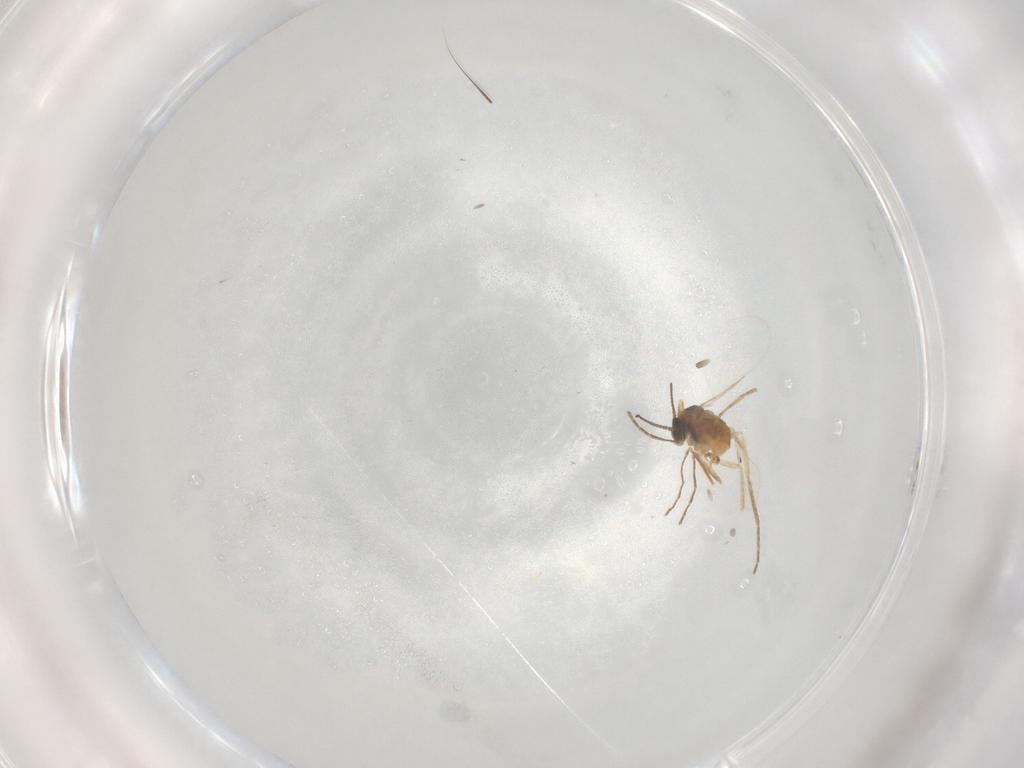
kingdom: Animalia
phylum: Arthropoda
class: Insecta
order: Diptera
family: Cecidomyiidae
